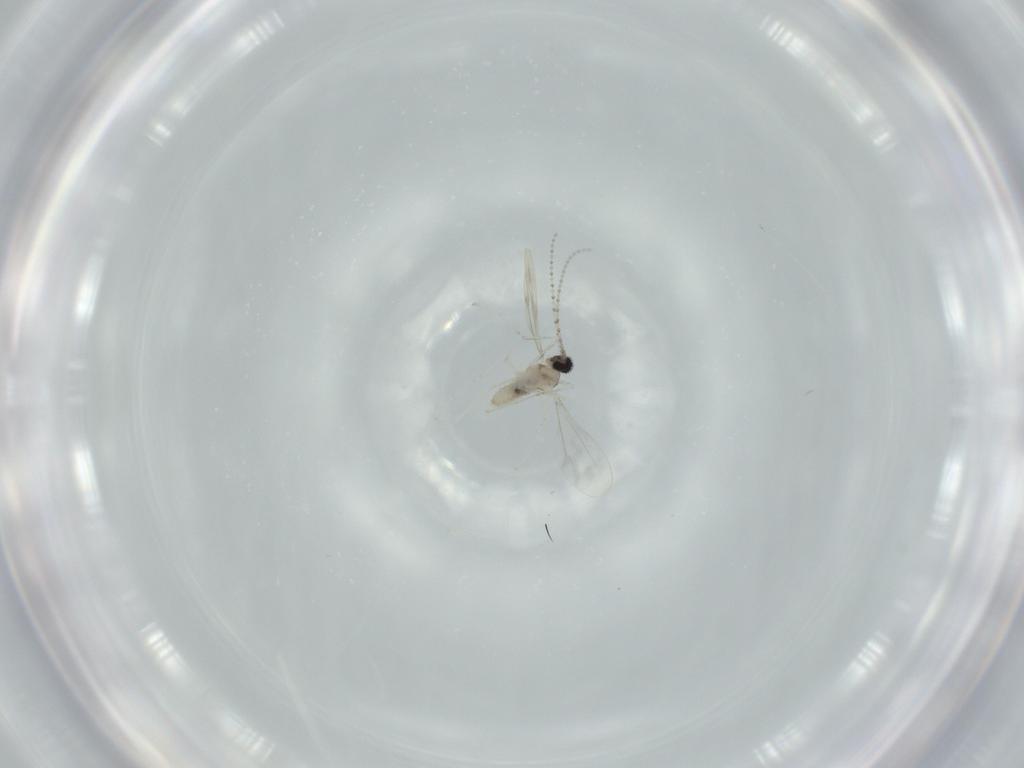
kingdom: Animalia
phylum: Arthropoda
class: Insecta
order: Diptera
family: Cecidomyiidae
